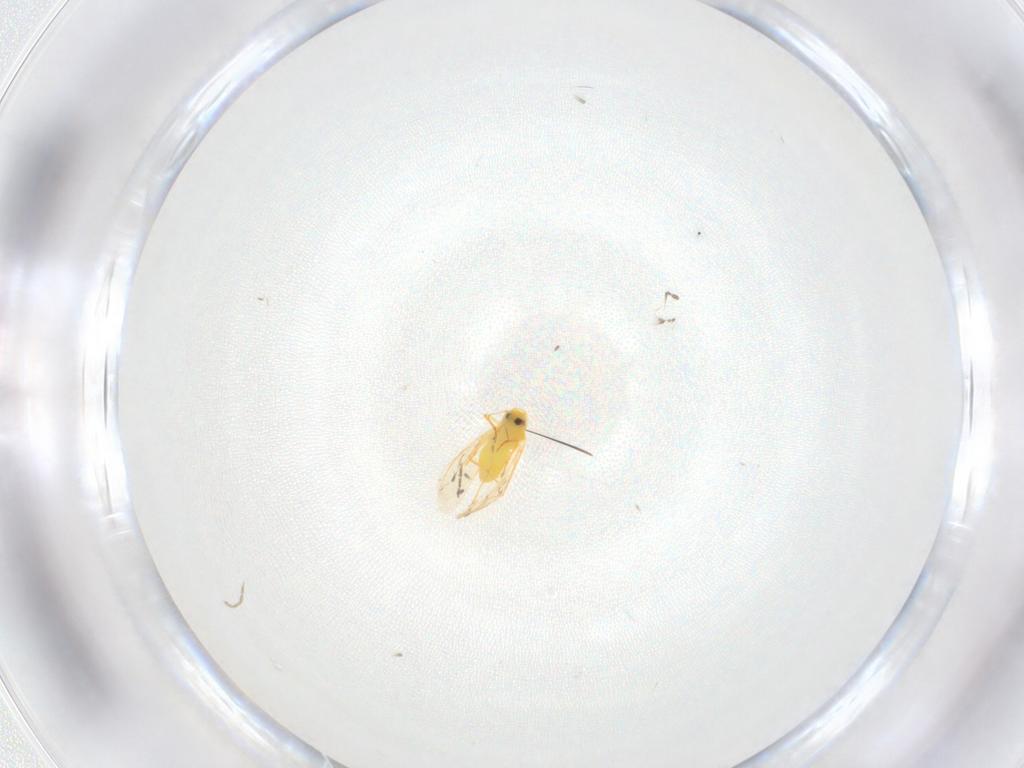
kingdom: Animalia
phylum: Arthropoda
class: Insecta
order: Hemiptera
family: Aleyrodidae
